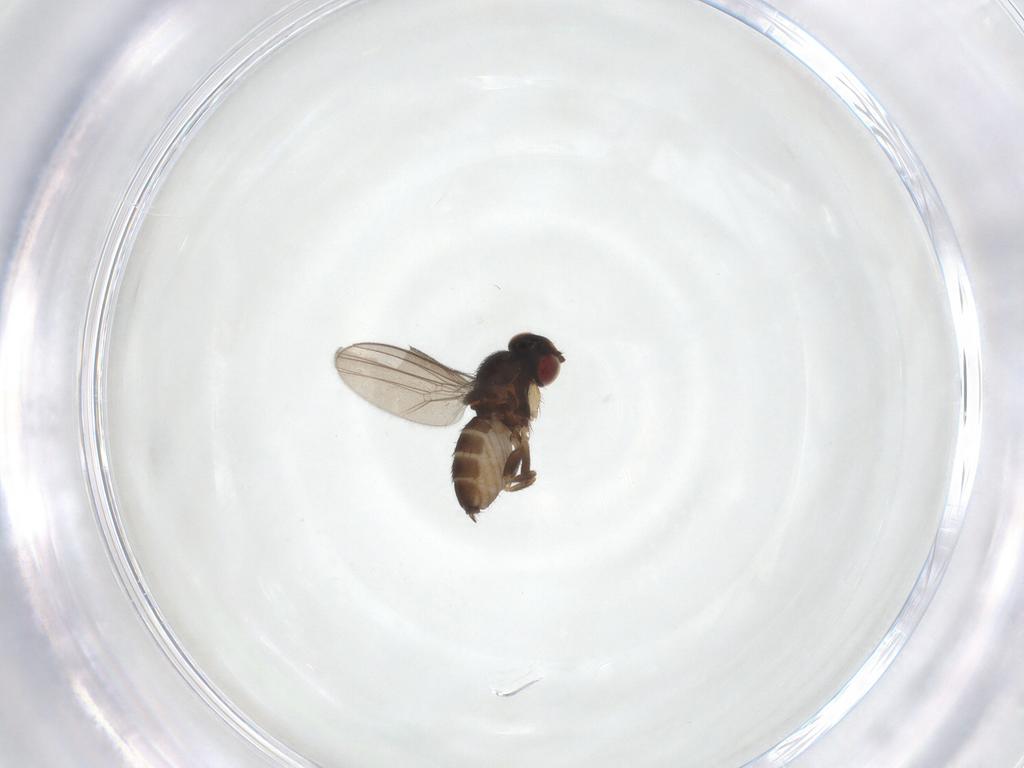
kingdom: Animalia
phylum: Arthropoda
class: Insecta
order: Diptera
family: Milichiidae
